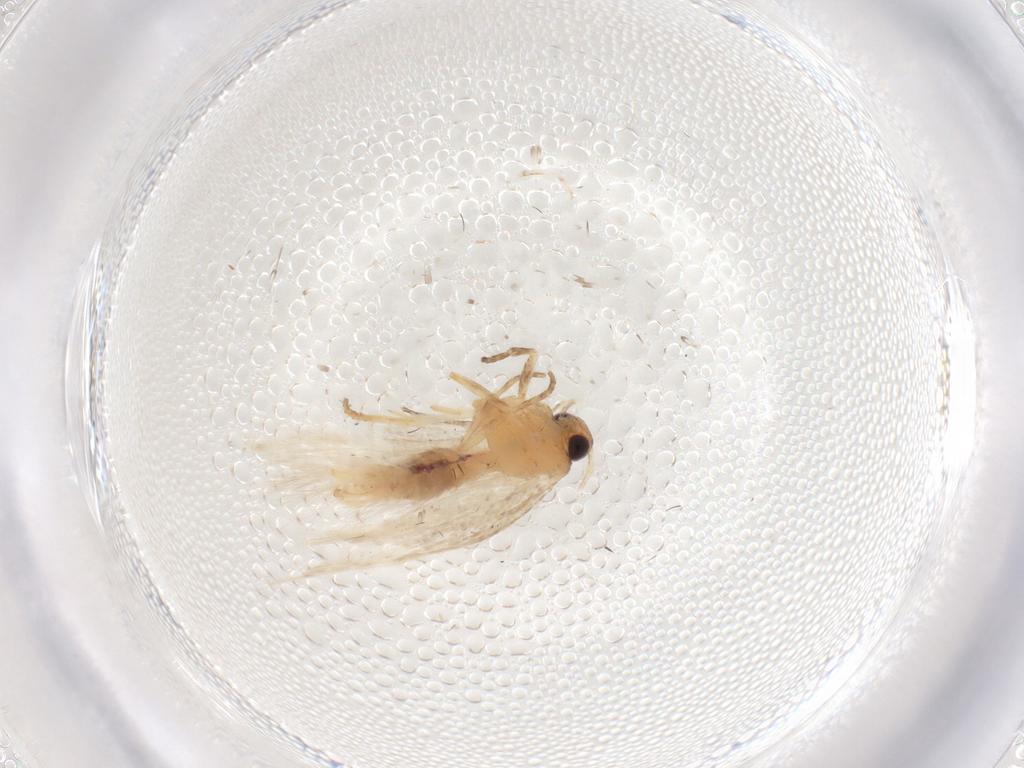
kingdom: Animalia
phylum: Arthropoda
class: Insecta
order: Lepidoptera
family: Gelechiidae
